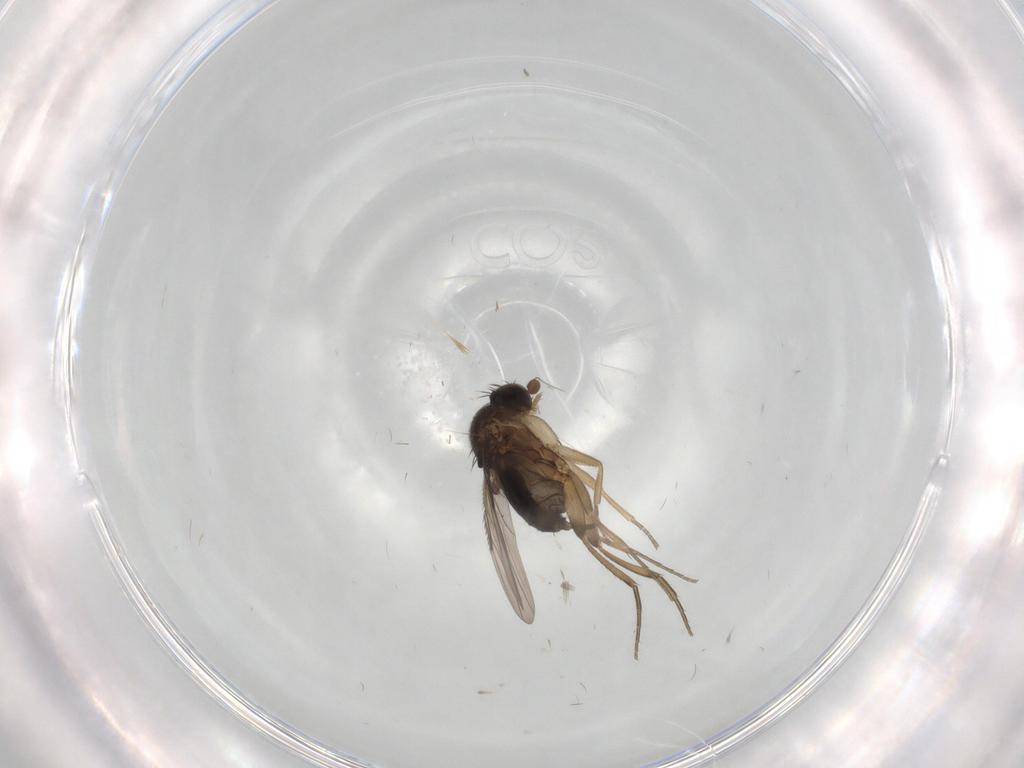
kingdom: Animalia
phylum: Arthropoda
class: Insecta
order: Diptera
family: Phoridae
